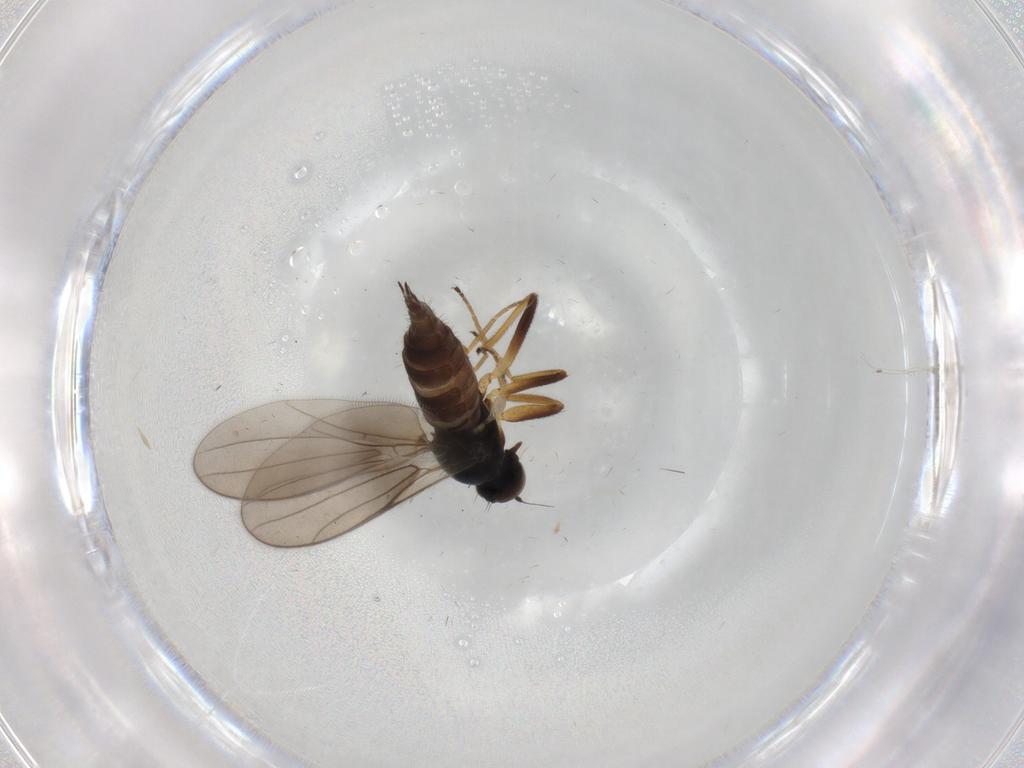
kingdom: Animalia
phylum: Arthropoda
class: Insecta
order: Diptera
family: Hybotidae
